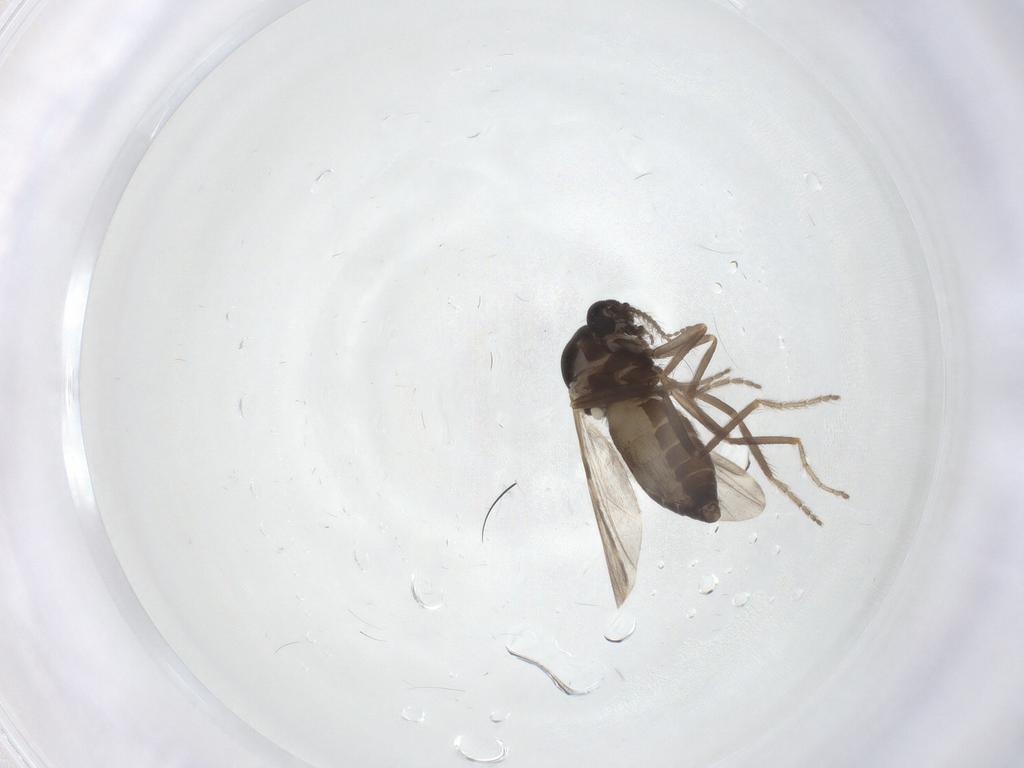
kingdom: Animalia
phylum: Arthropoda
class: Insecta
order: Diptera
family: Ceratopogonidae
